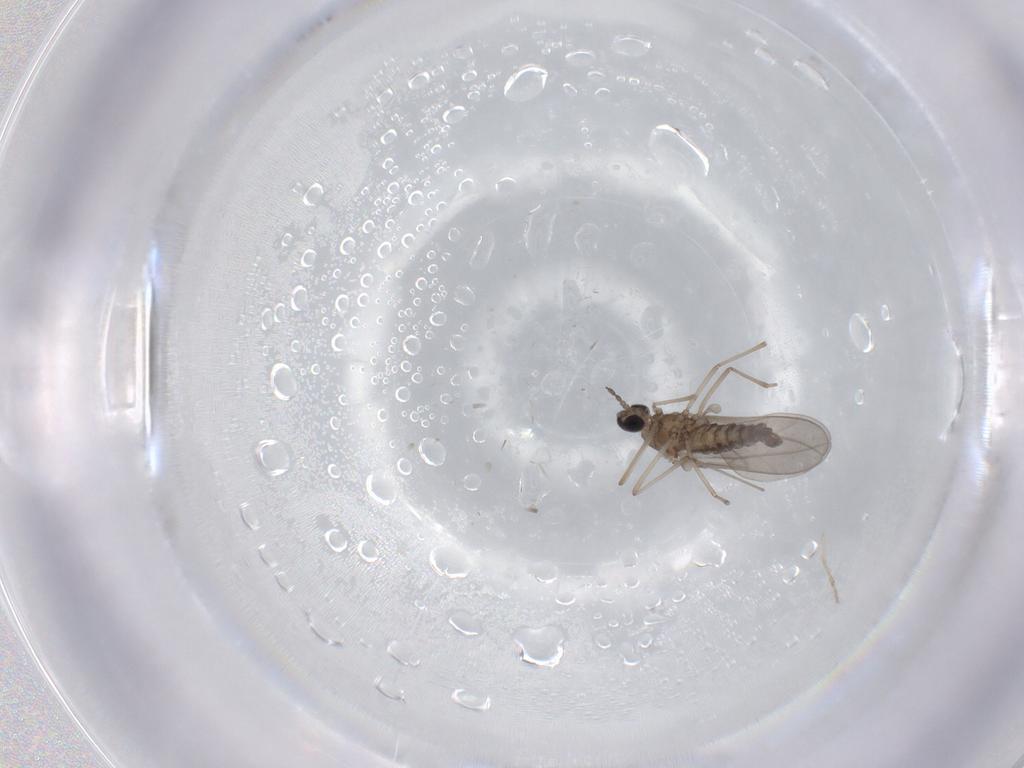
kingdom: Animalia
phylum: Arthropoda
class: Insecta
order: Diptera
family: Cecidomyiidae
